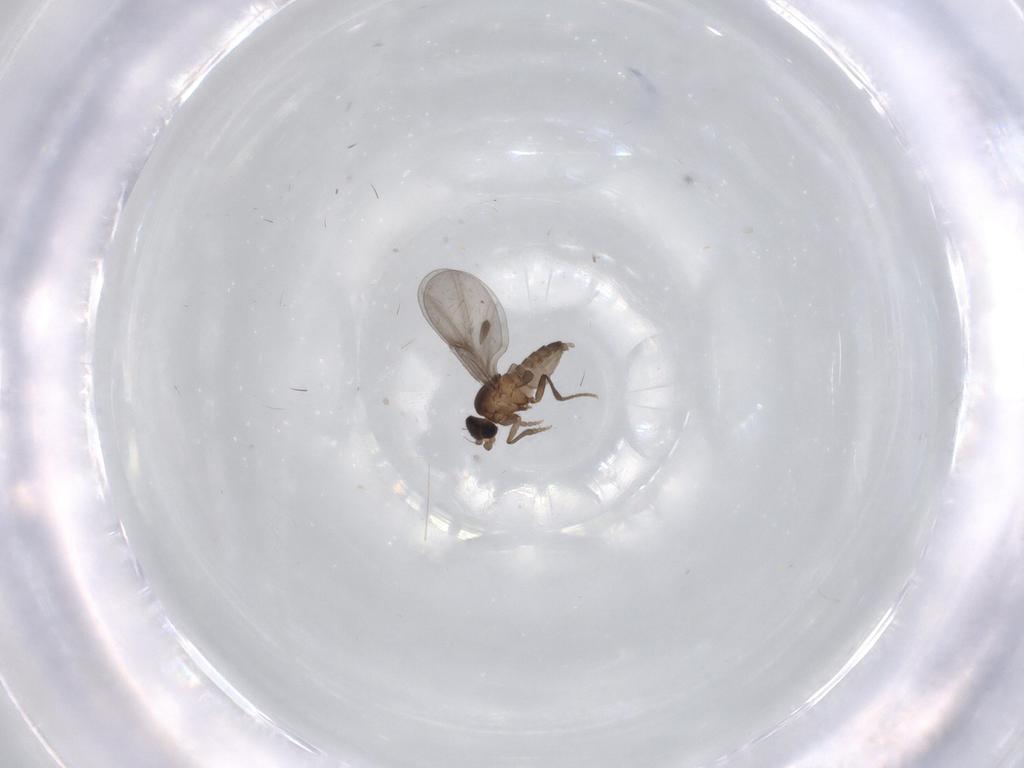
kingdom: Animalia
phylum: Arthropoda
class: Insecta
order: Diptera
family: Phoridae
